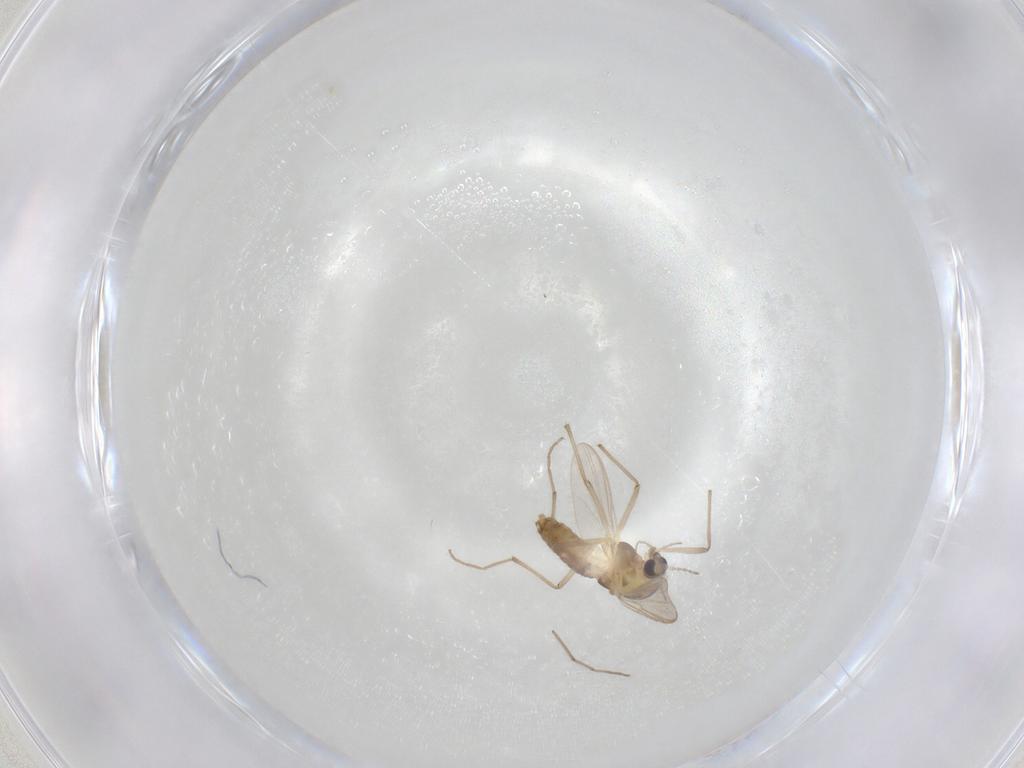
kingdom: Animalia
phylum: Arthropoda
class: Insecta
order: Diptera
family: Chironomidae
